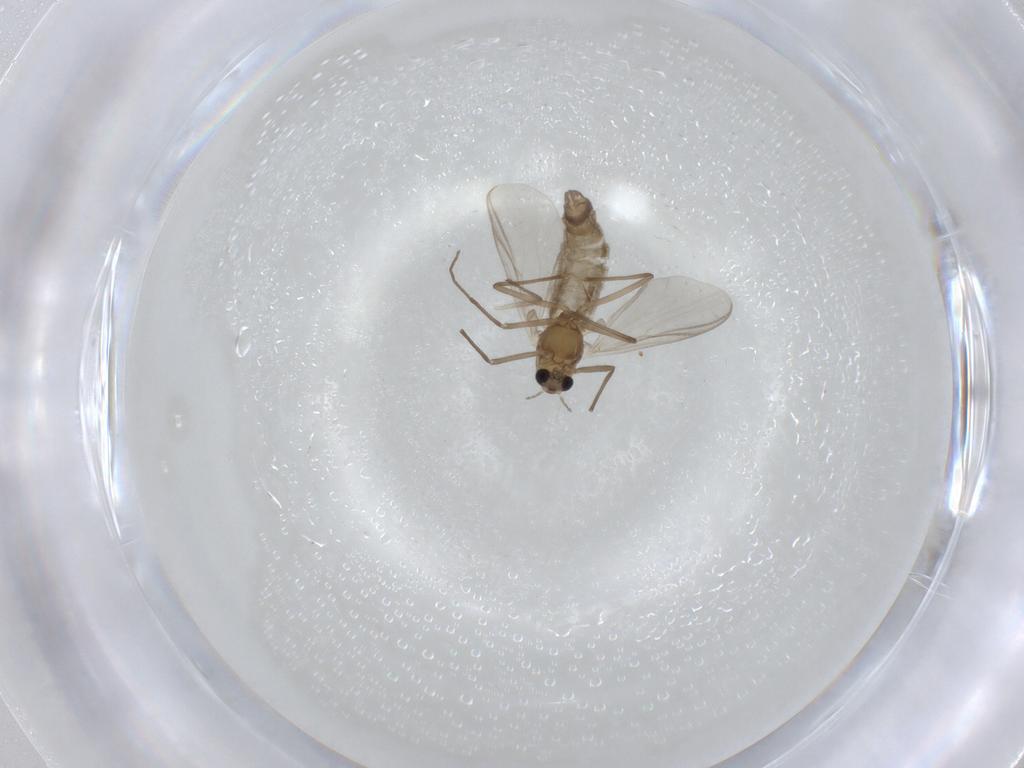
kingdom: Animalia
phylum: Arthropoda
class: Insecta
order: Diptera
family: Chironomidae
